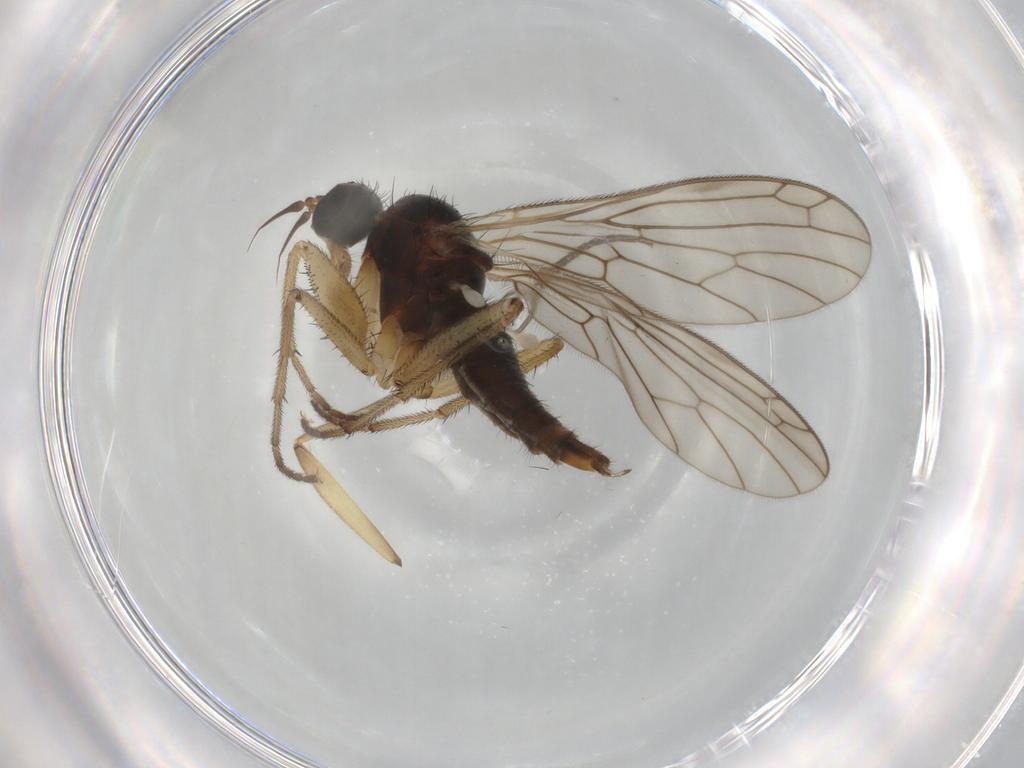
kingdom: Animalia
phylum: Arthropoda
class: Insecta
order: Diptera
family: Empididae
